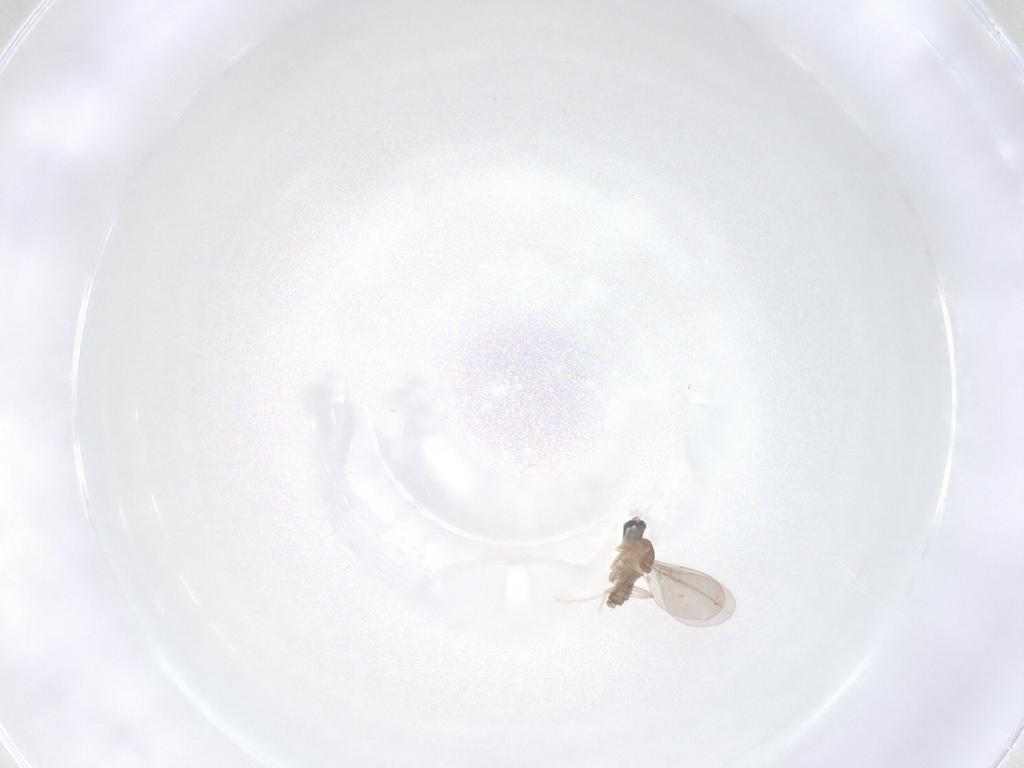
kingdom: Animalia
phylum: Arthropoda
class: Insecta
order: Diptera
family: Cecidomyiidae
